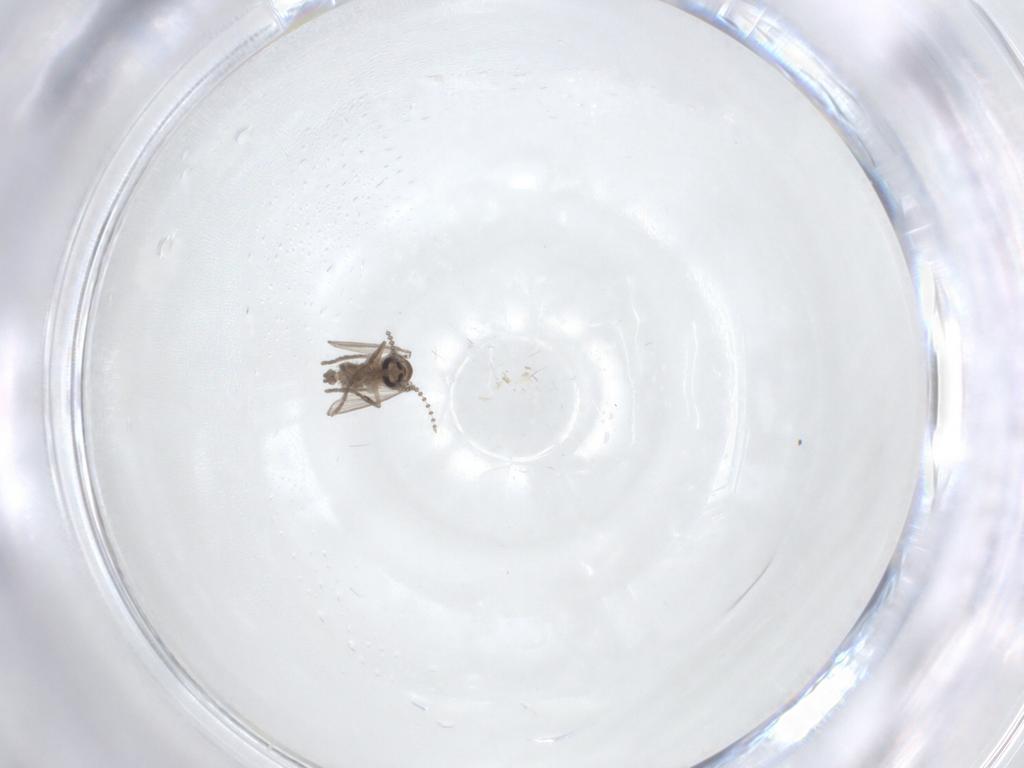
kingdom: Animalia
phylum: Arthropoda
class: Insecta
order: Diptera
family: Psychodidae
